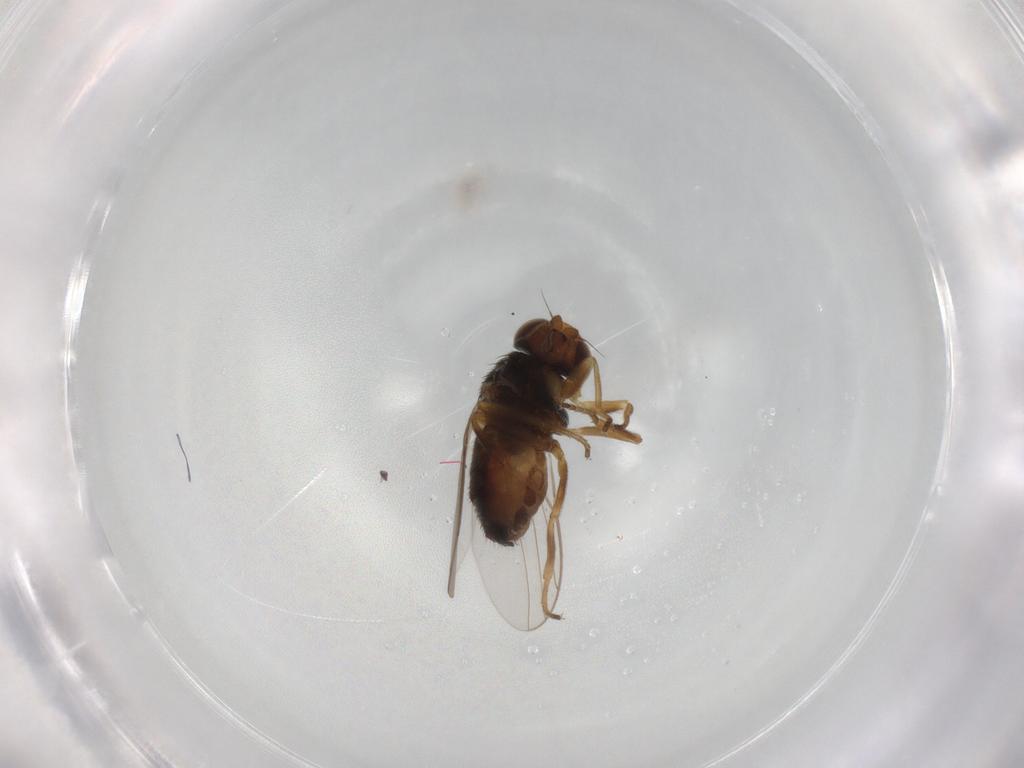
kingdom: Animalia
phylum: Arthropoda
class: Insecta
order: Diptera
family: Chloropidae
